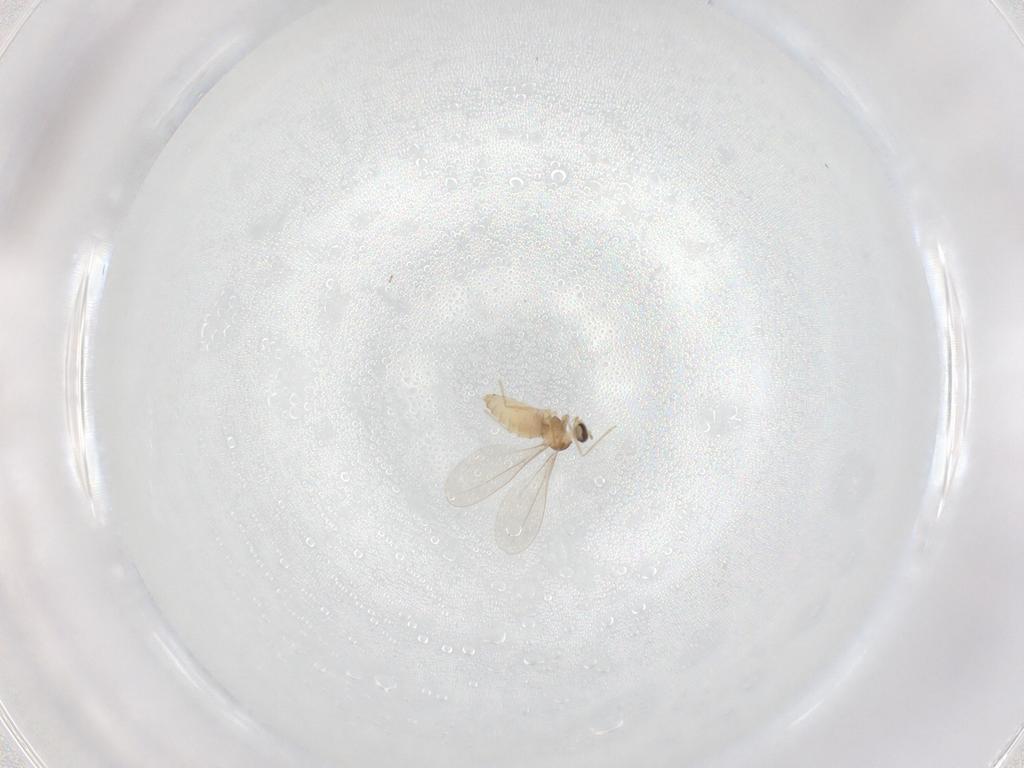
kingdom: Animalia
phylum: Arthropoda
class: Insecta
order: Diptera
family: Cecidomyiidae
